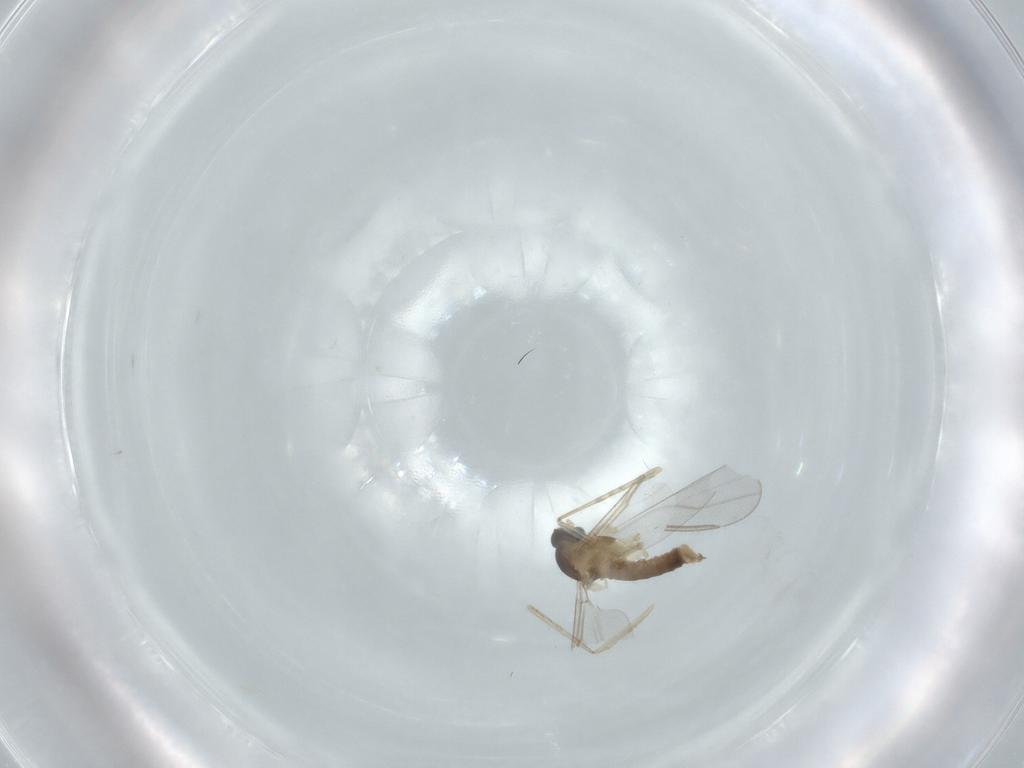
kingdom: Animalia
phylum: Arthropoda
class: Insecta
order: Diptera
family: Cecidomyiidae
